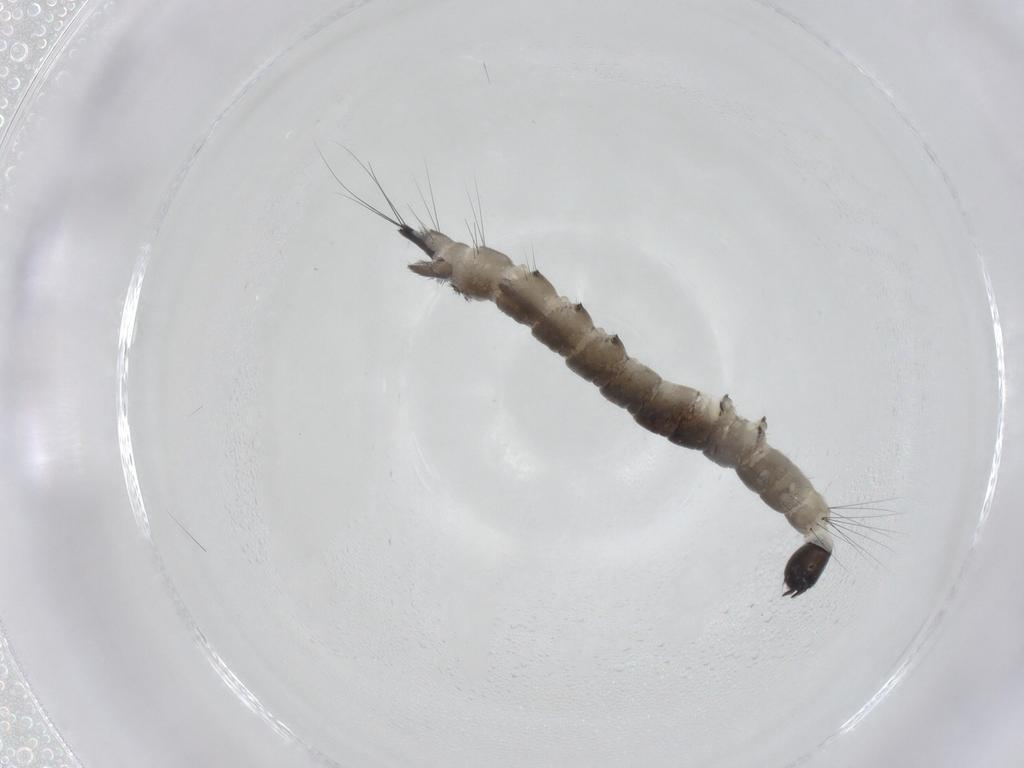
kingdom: Animalia
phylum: Arthropoda
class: Insecta
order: Diptera
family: Dixidae
